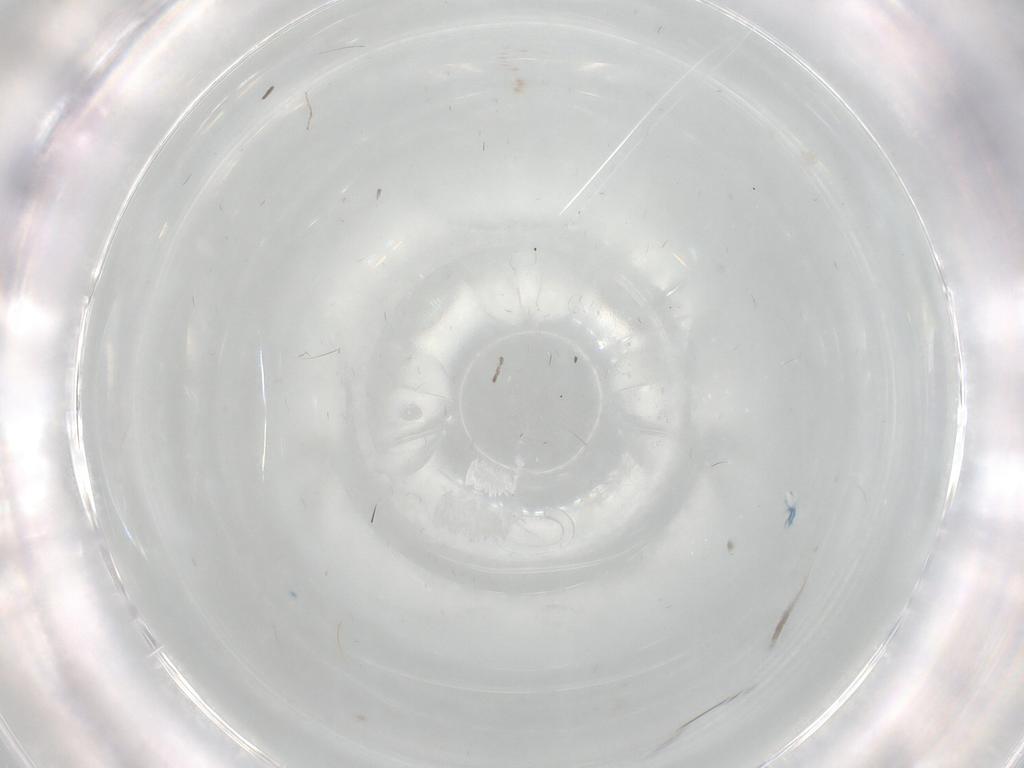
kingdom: Animalia
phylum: Arthropoda
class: Insecta
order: Diptera
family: Cecidomyiidae
